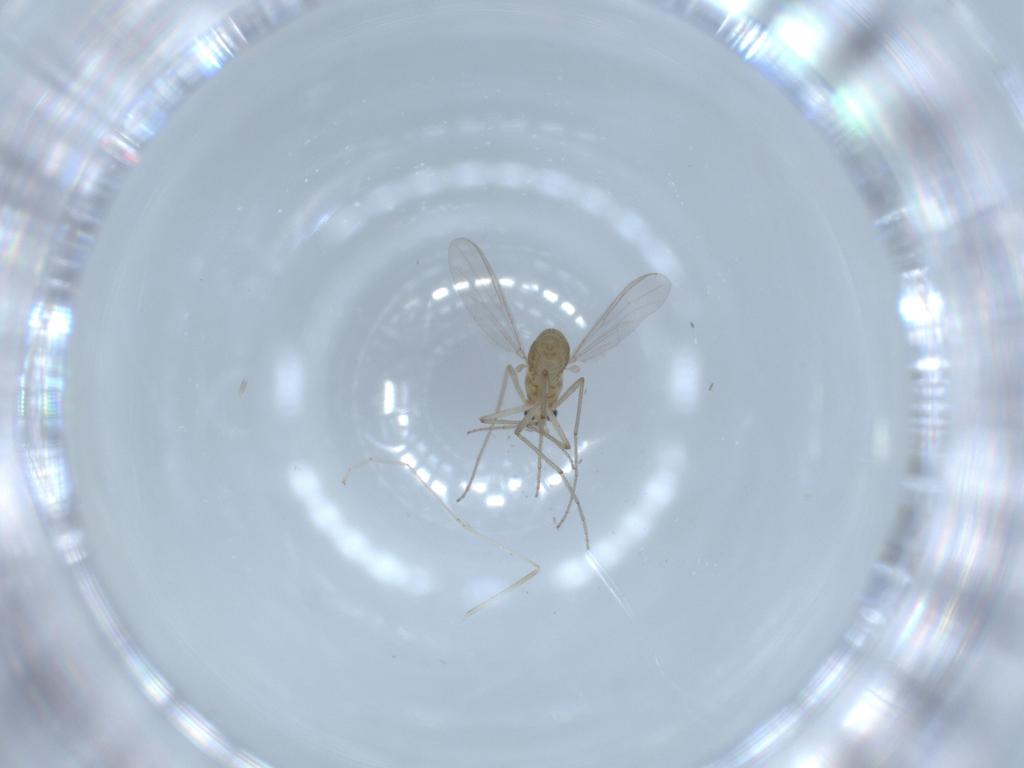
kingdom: Animalia
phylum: Arthropoda
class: Insecta
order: Diptera
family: Chironomidae
